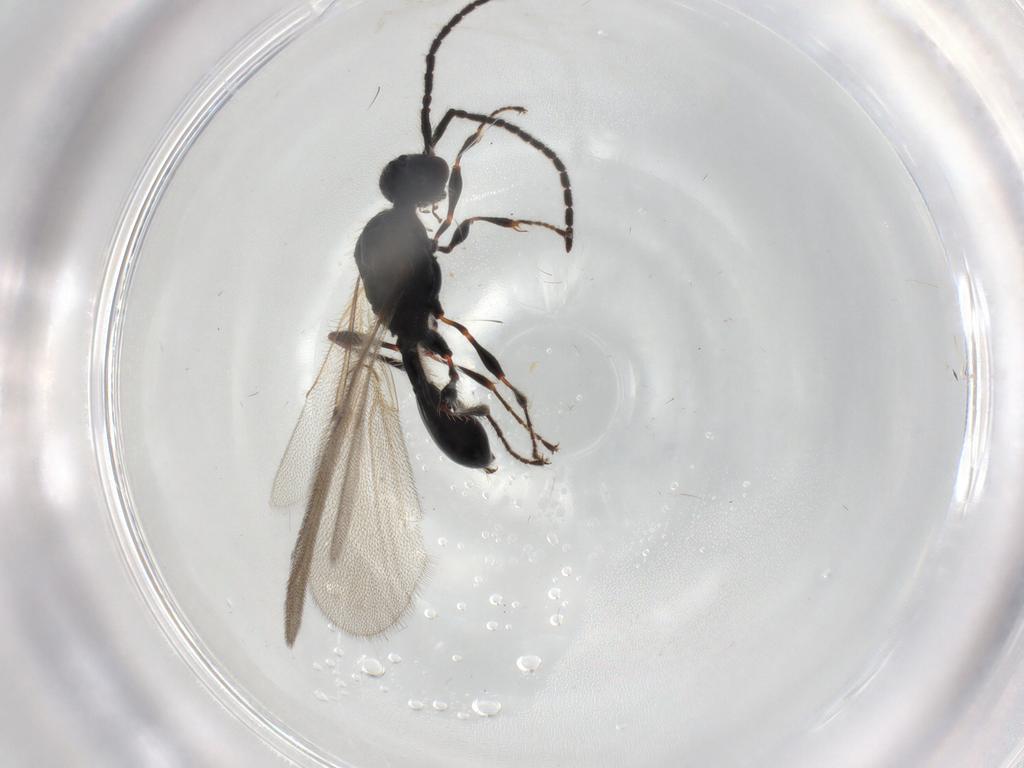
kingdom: Animalia
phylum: Arthropoda
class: Insecta
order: Hymenoptera
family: Diapriidae
